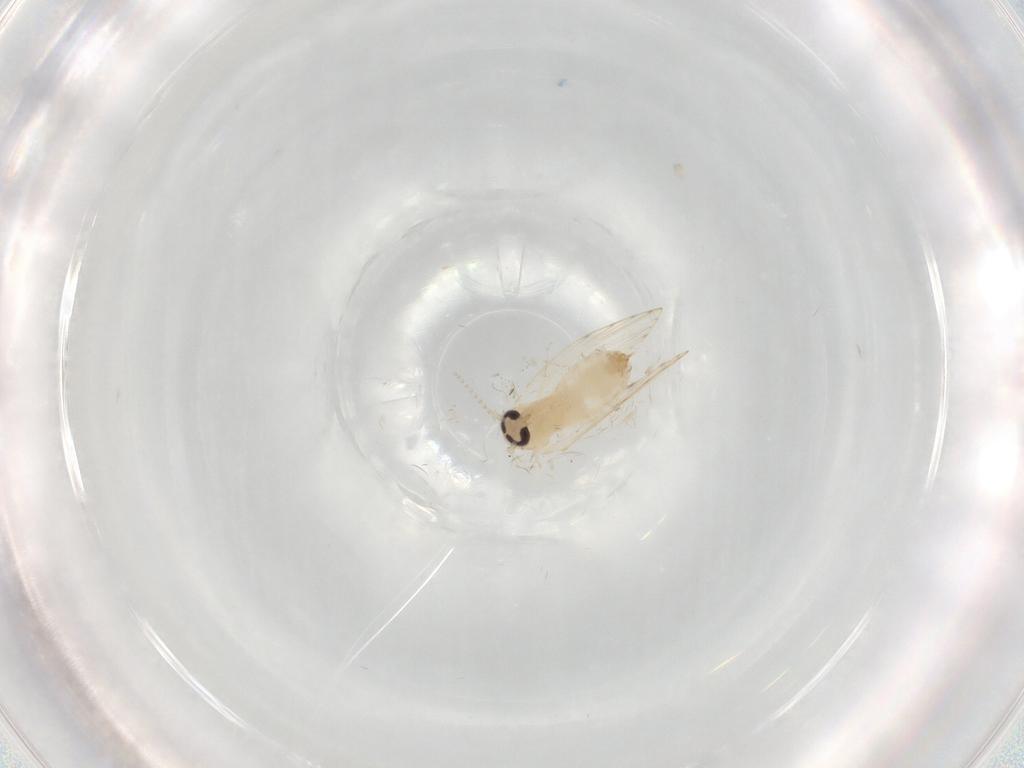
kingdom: Animalia
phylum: Arthropoda
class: Insecta
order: Diptera
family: Psychodidae
